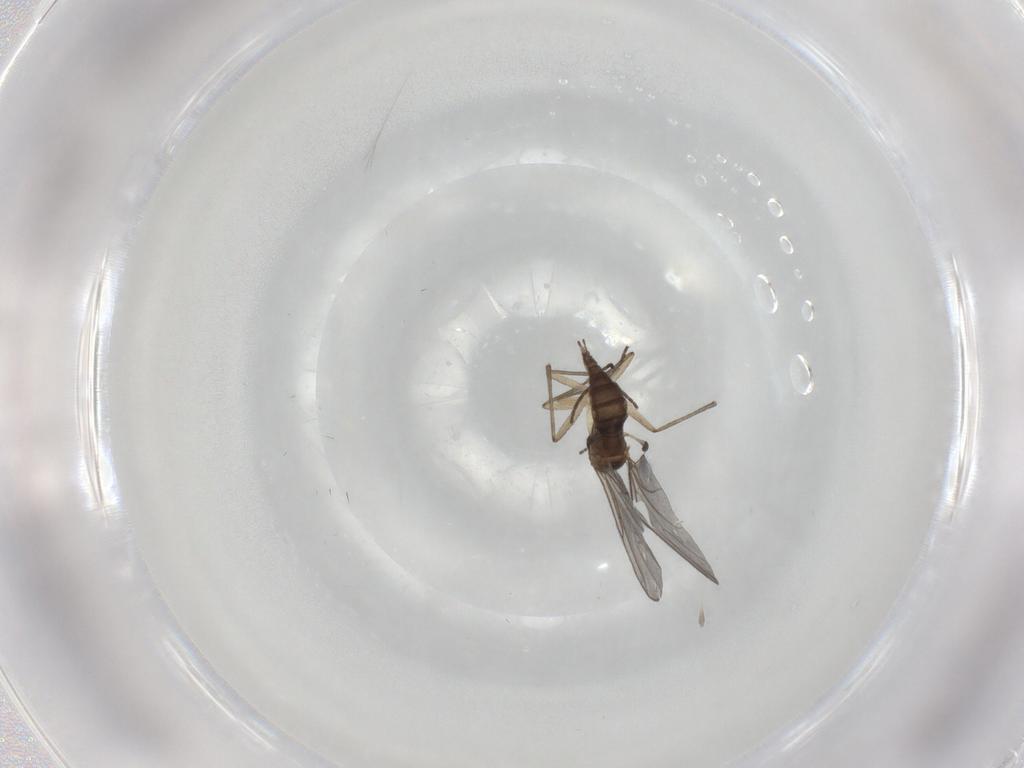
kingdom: Animalia
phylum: Arthropoda
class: Insecta
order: Diptera
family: Sciaridae
